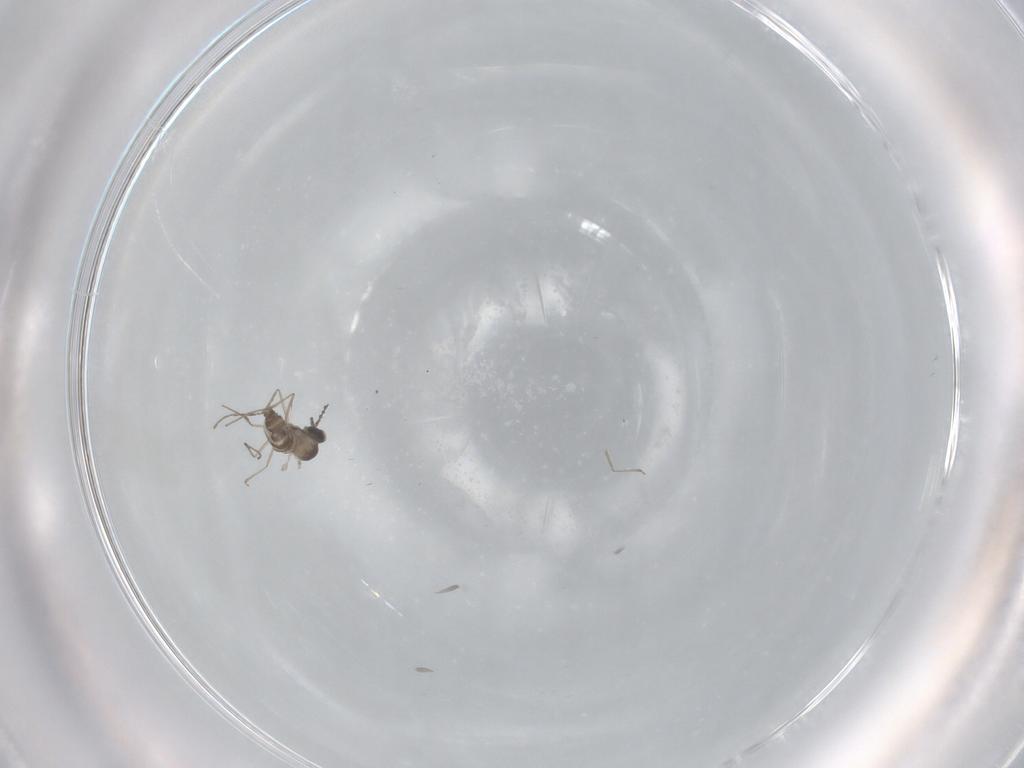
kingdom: Animalia
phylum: Arthropoda
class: Insecta
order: Diptera
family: Cecidomyiidae
